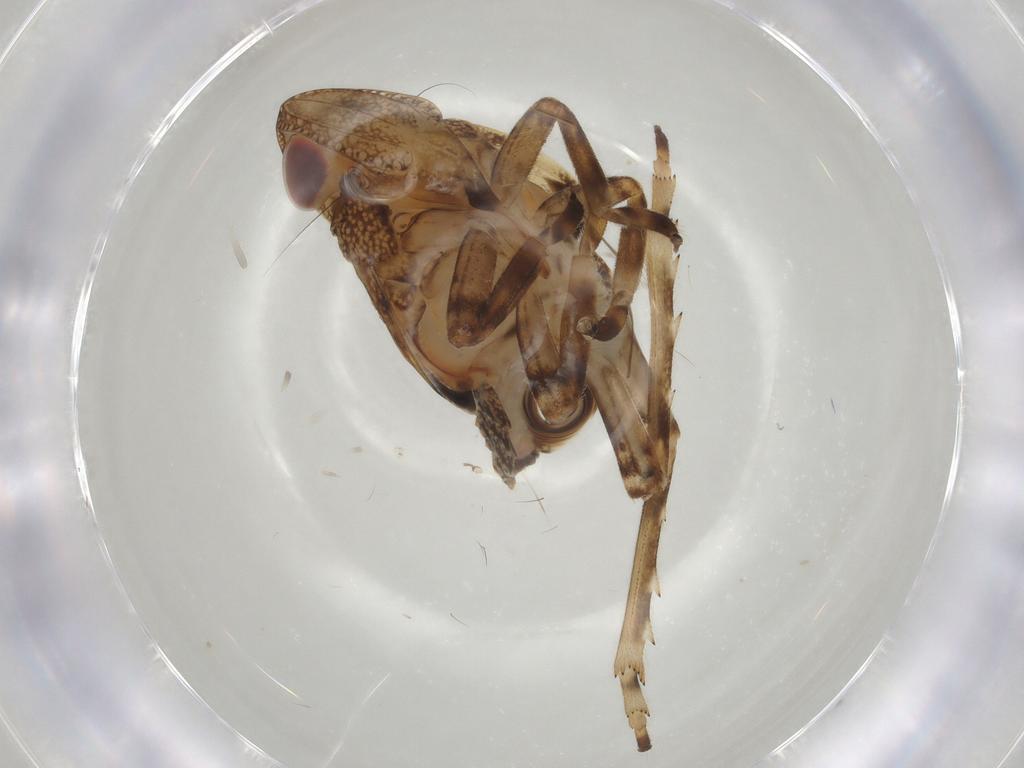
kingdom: Animalia
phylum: Arthropoda
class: Insecta
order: Hemiptera
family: Tropiduchidae
